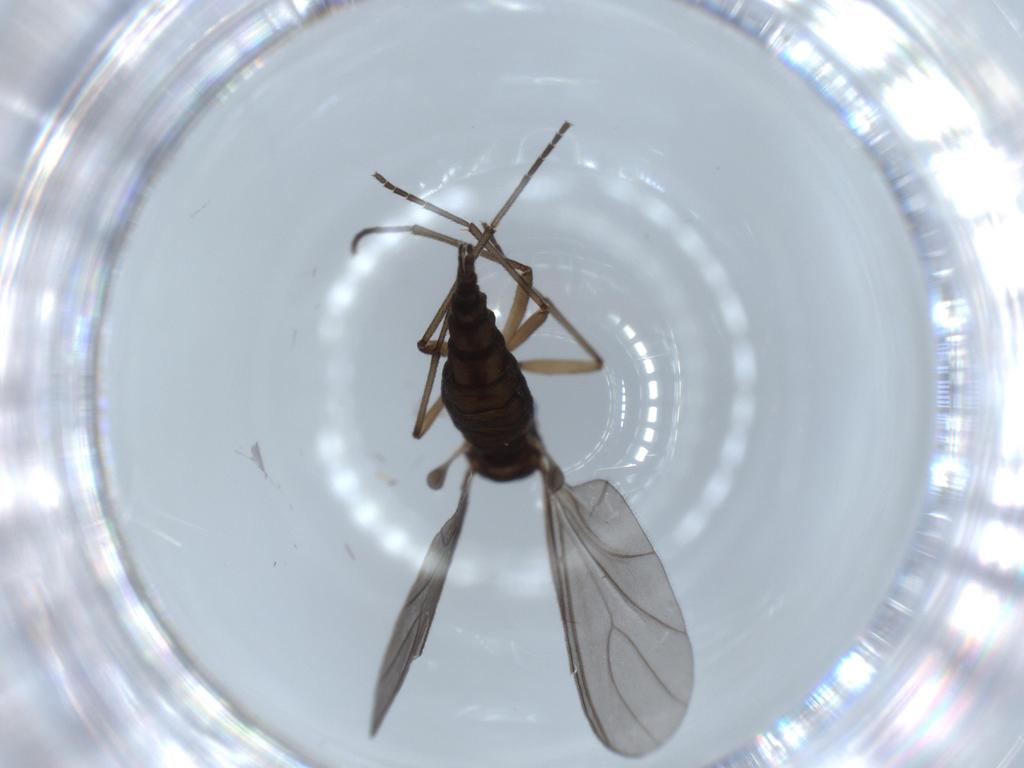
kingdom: Animalia
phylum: Arthropoda
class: Insecta
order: Diptera
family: Sciaridae
